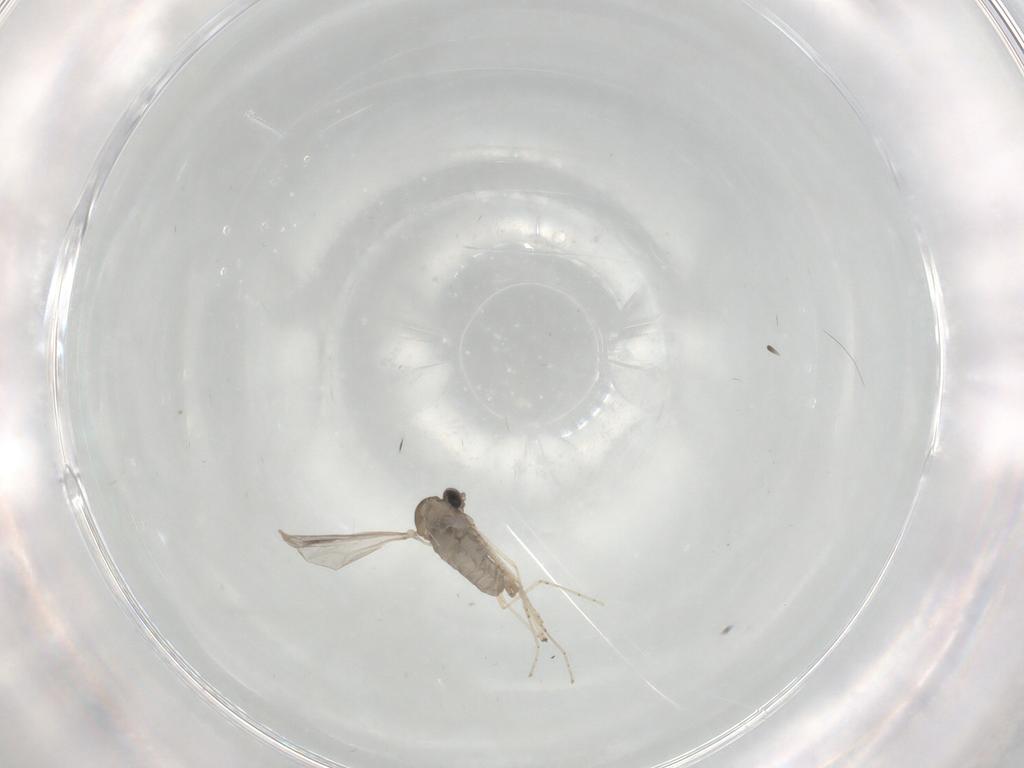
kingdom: Animalia
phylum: Arthropoda
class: Insecta
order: Diptera
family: Cecidomyiidae
